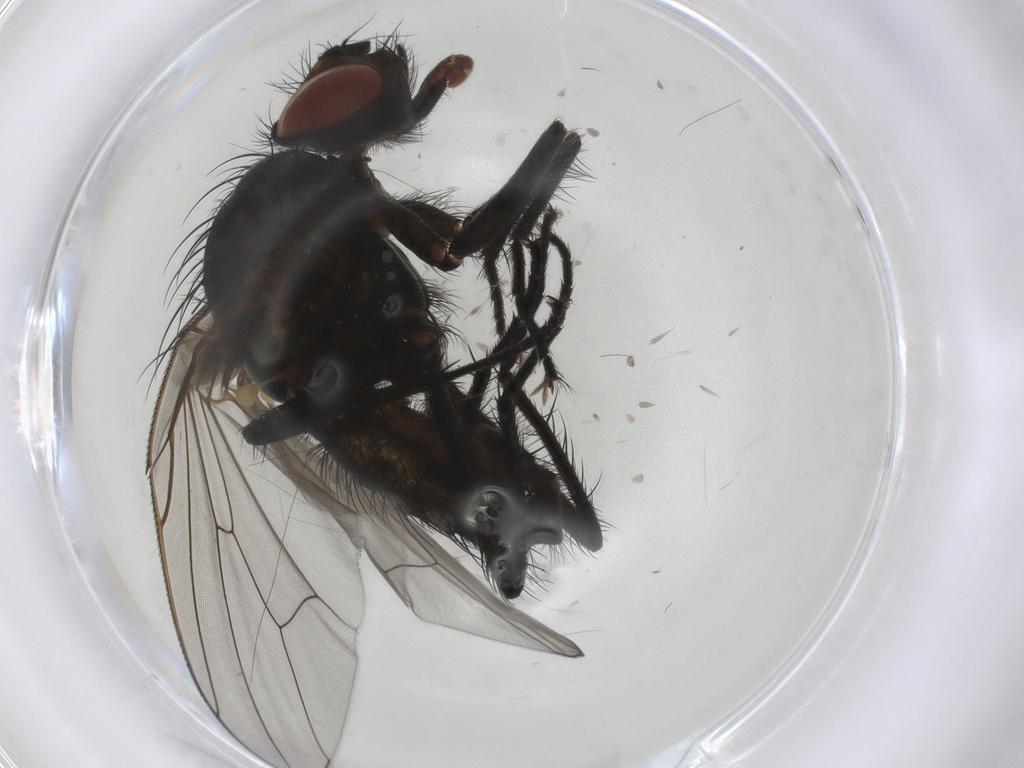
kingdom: Animalia
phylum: Arthropoda
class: Insecta
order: Diptera
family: Anthomyiidae
